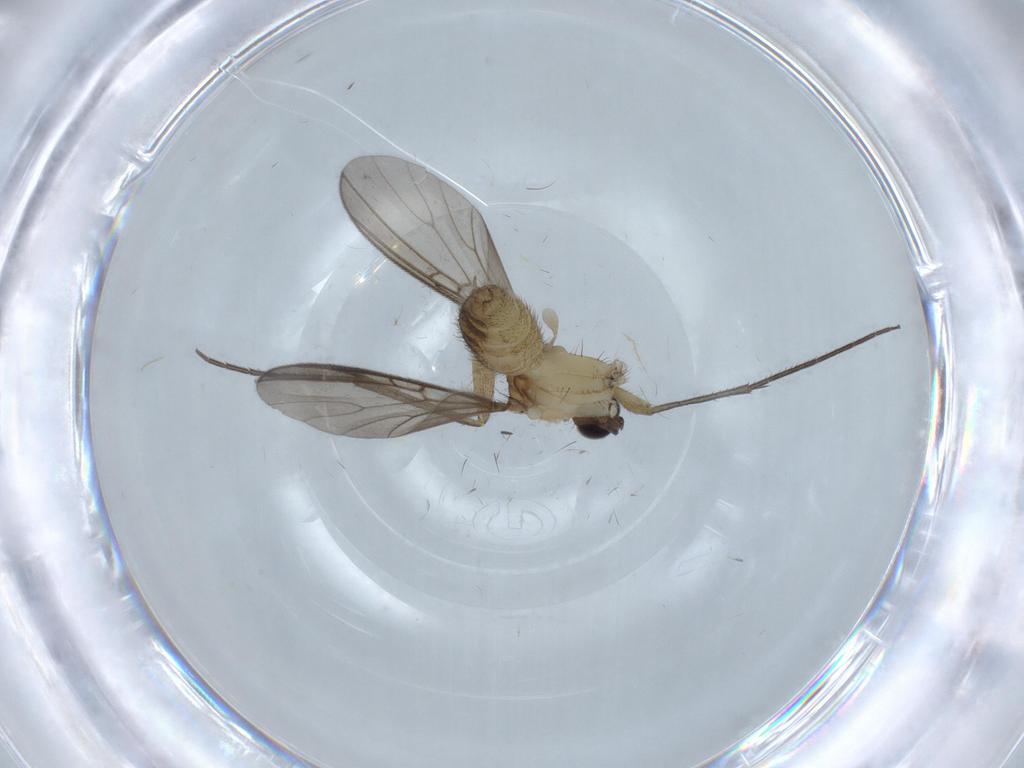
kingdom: Animalia
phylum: Arthropoda
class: Insecta
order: Diptera
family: Mycetophilidae
